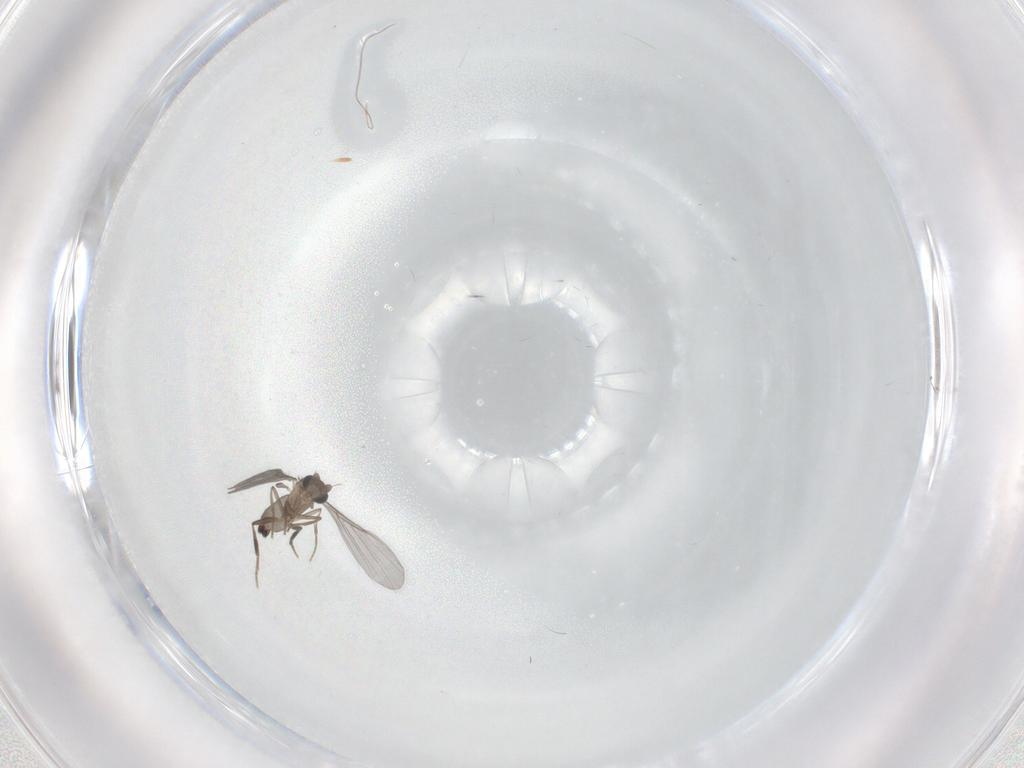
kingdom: Animalia
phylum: Arthropoda
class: Insecta
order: Diptera
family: Phoridae
